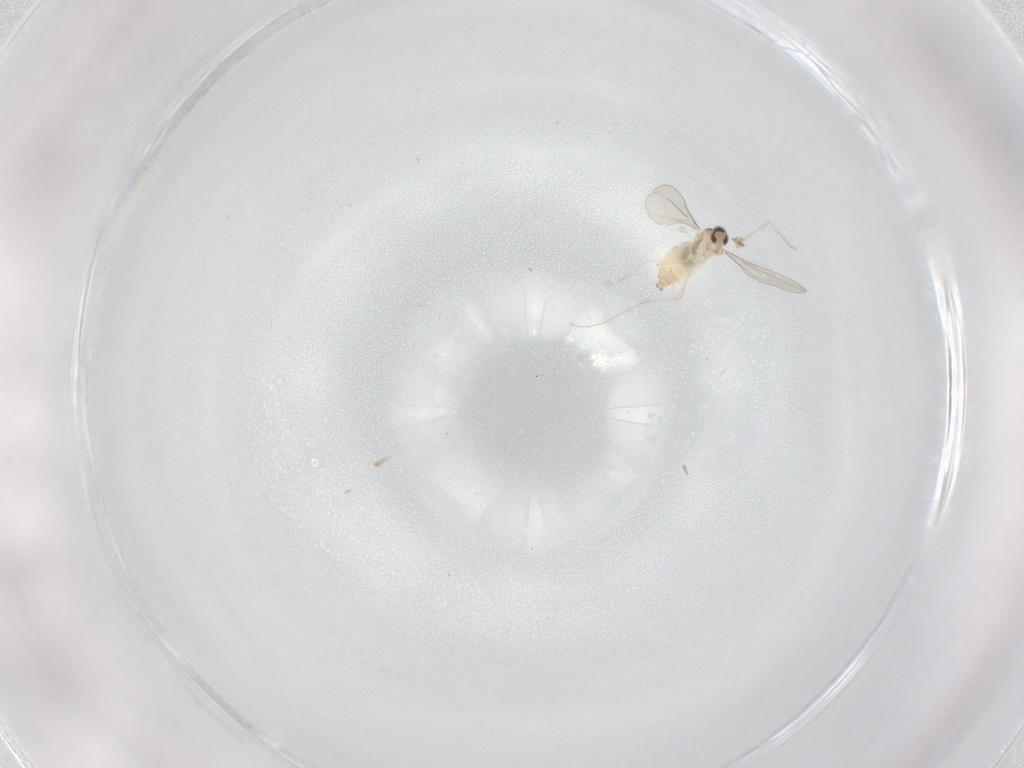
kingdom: Animalia
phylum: Arthropoda
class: Insecta
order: Diptera
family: Cecidomyiidae
